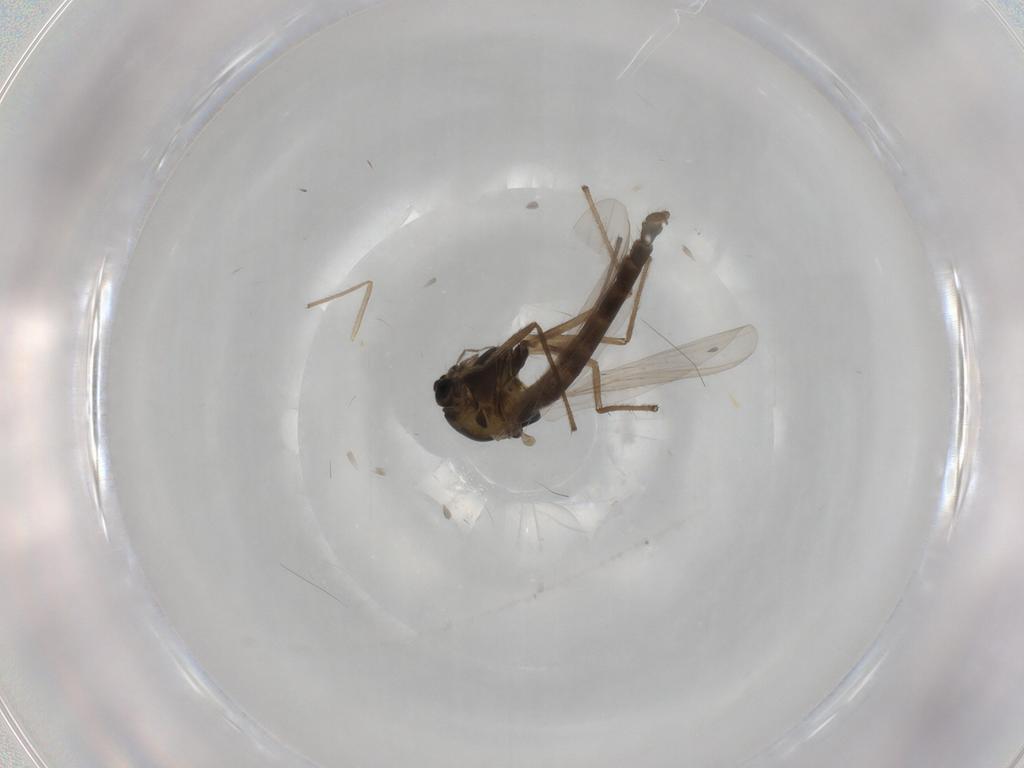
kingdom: Animalia
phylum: Arthropoda
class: Insecta
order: Diptera
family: Chironomidae
